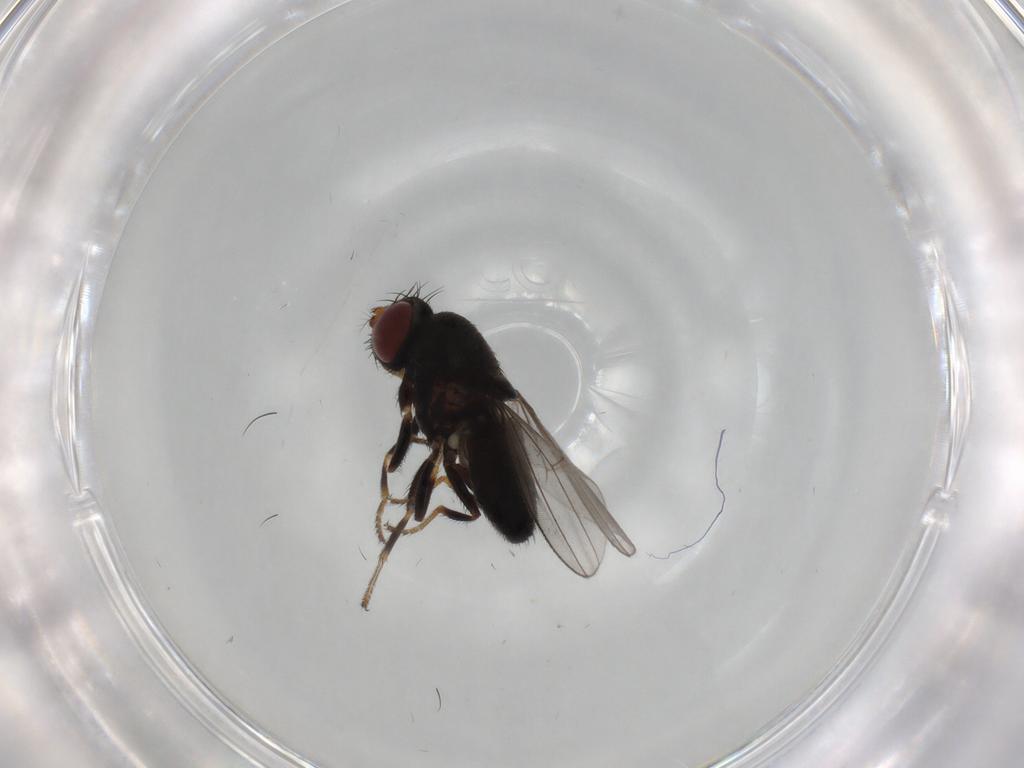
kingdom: Animalia
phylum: Arthropoda
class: Insecta
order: Diptera
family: Ephydridae
